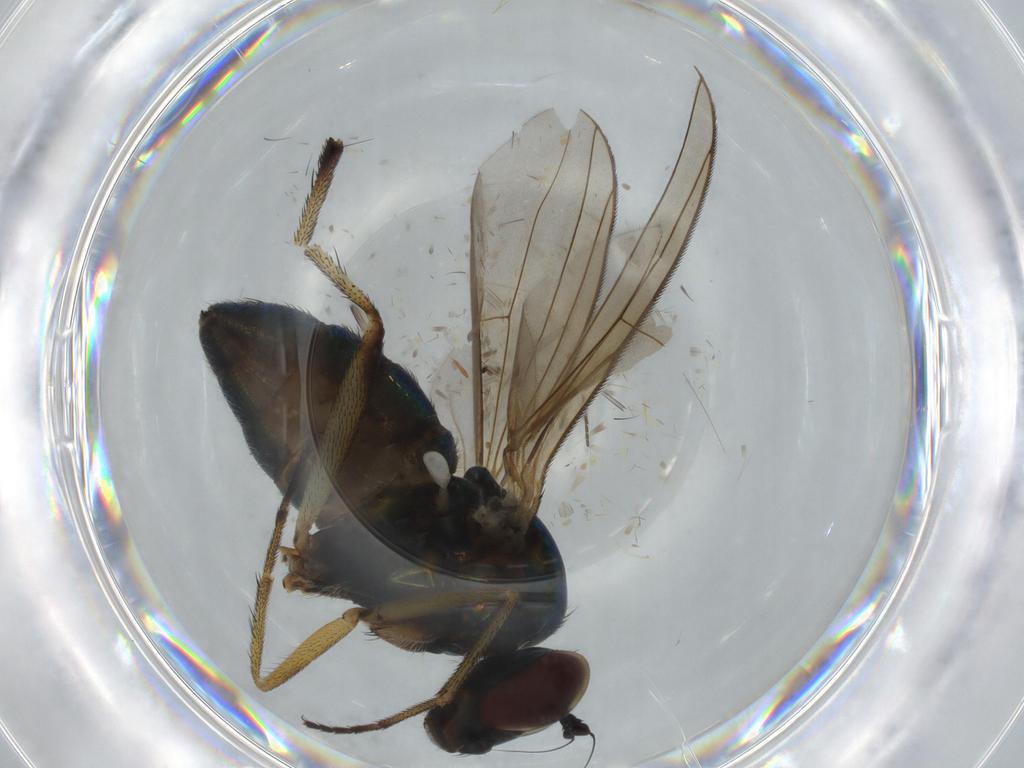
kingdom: Animalia
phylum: Arthropoda
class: Insecta
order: Diptera
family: Dolichopodidae
